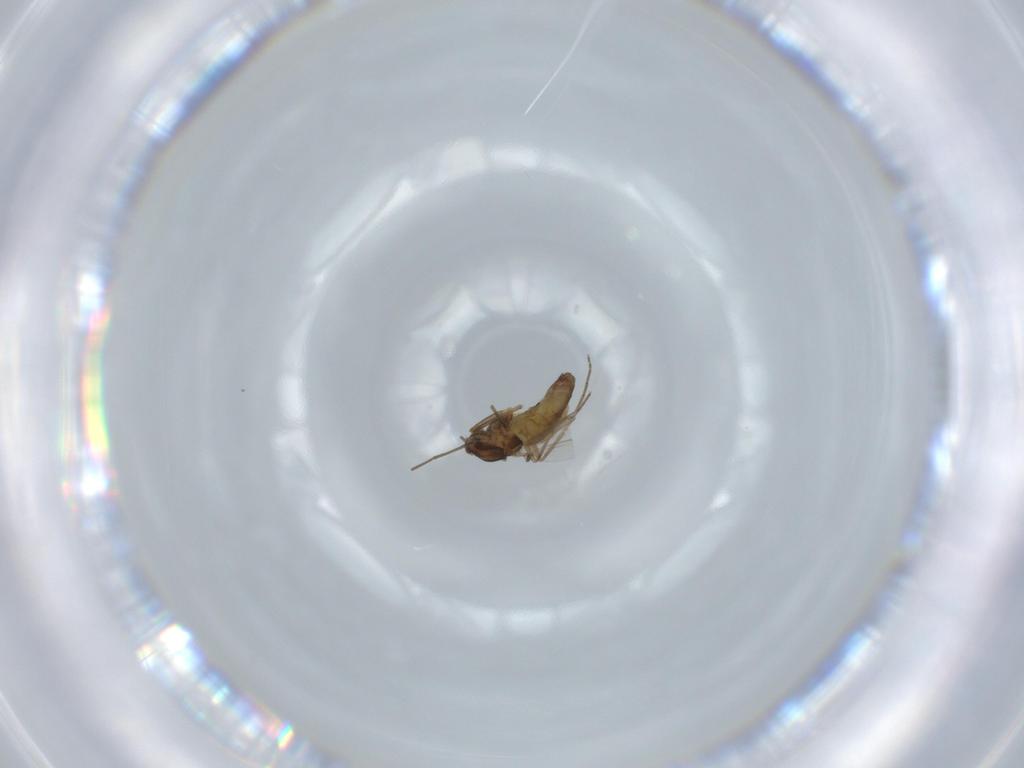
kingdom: Animalia
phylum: Arthropoda
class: Insecta
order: Diptera
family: Chironomidae
